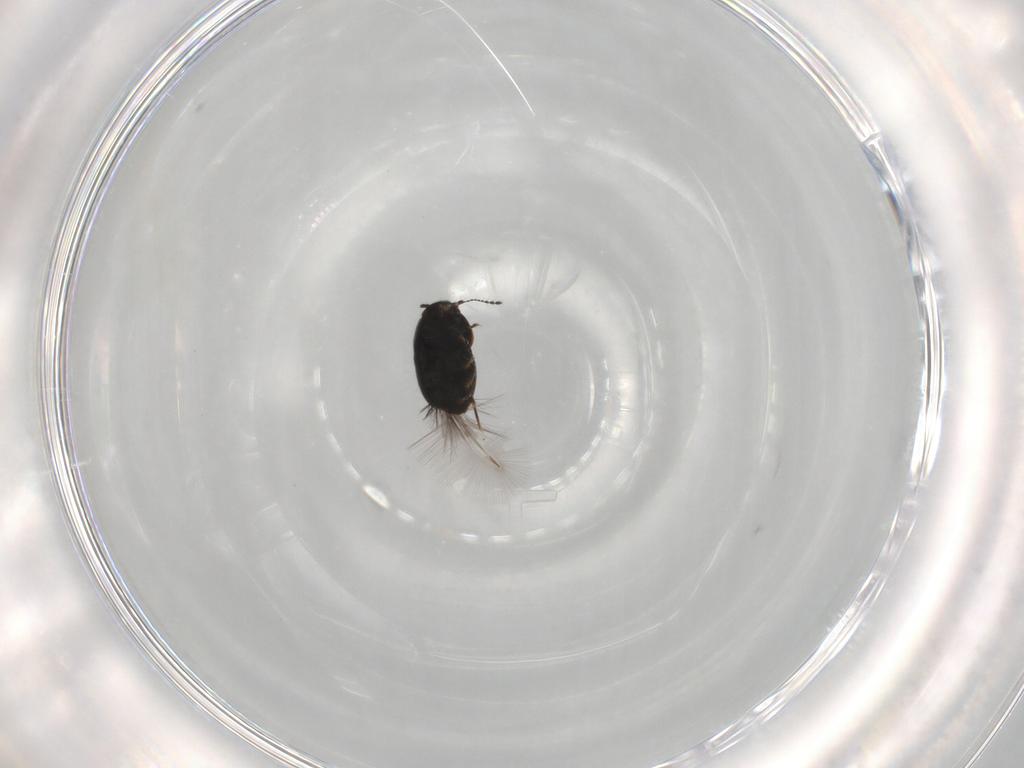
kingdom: Animalia
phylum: Arthropoda
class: Insecta
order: Coleoptera
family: Ptiliidae
